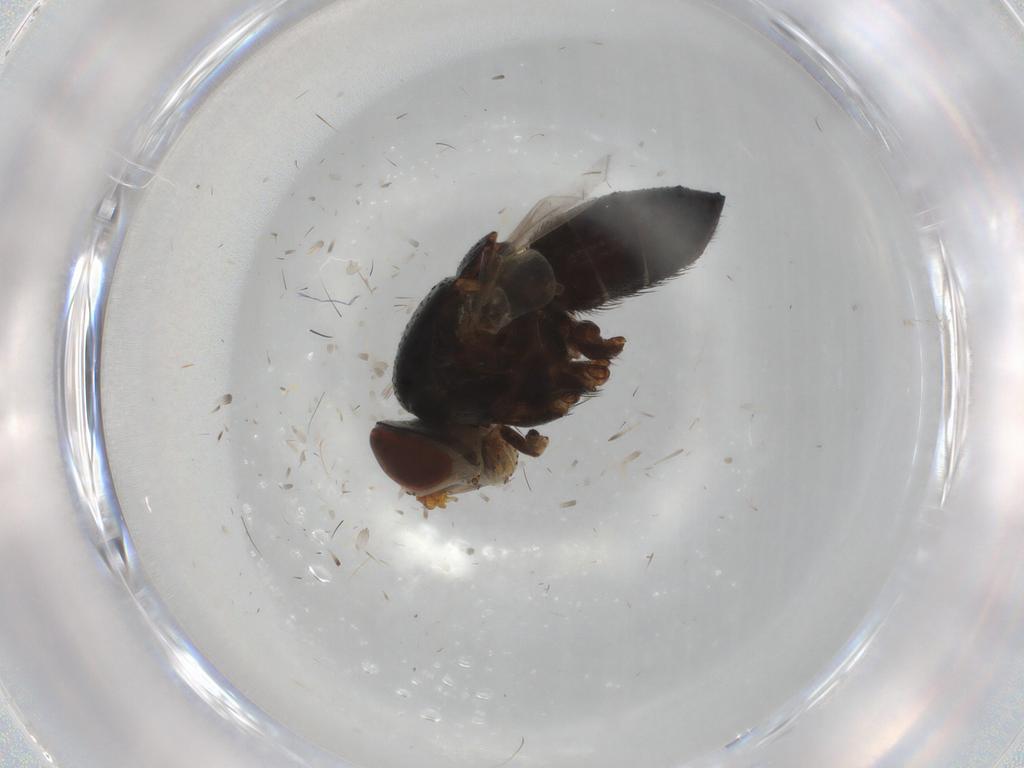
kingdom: Animalia
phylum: Arthropoda
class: Insecta
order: Diptera
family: Tachinidae
